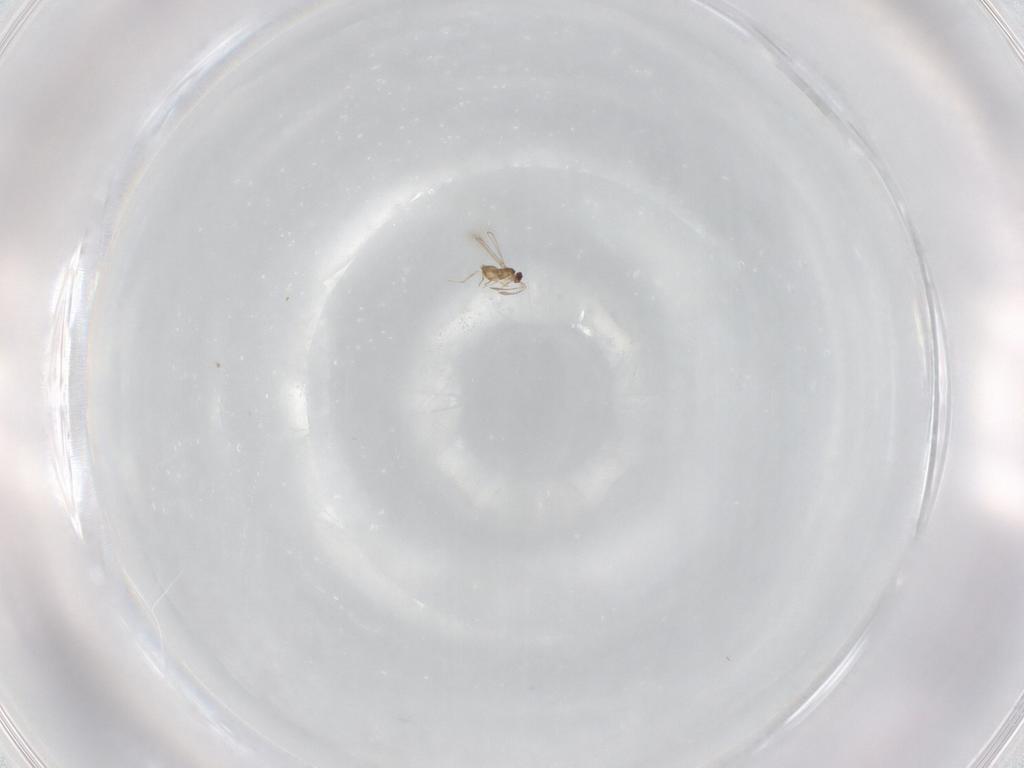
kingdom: Animalia
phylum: Arthropoda
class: Insecta
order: Hymenoptera
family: Mymaridae
